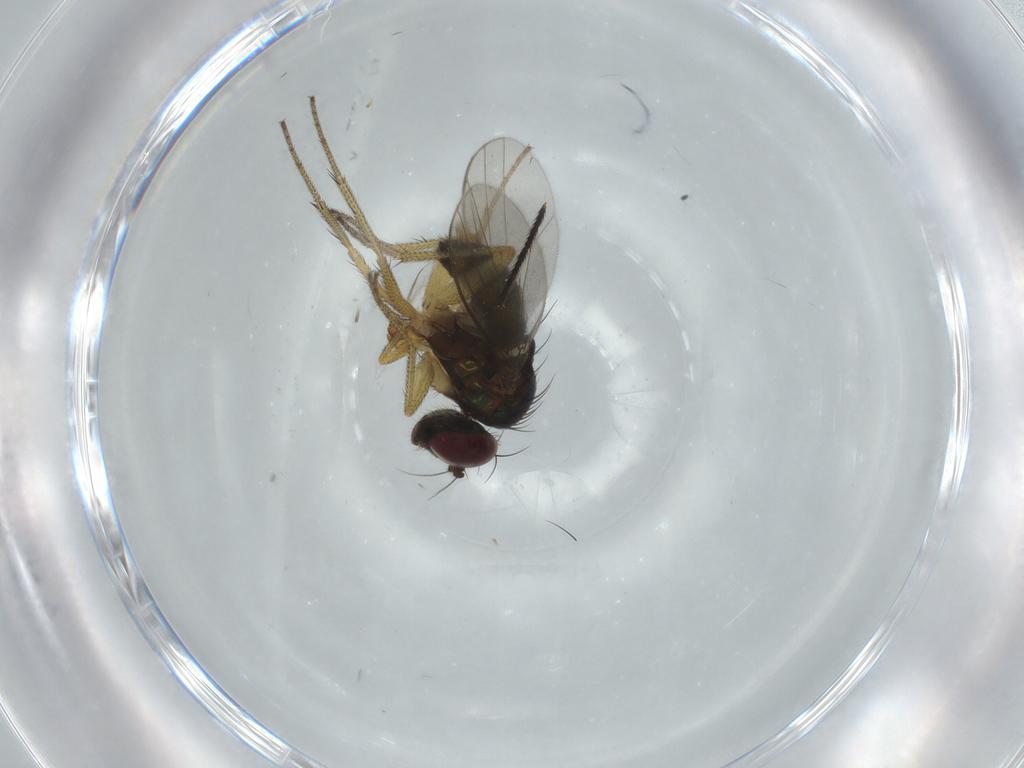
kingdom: Animalia
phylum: Arthropoda
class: Insecta
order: Diptera
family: Dolichopodidae
